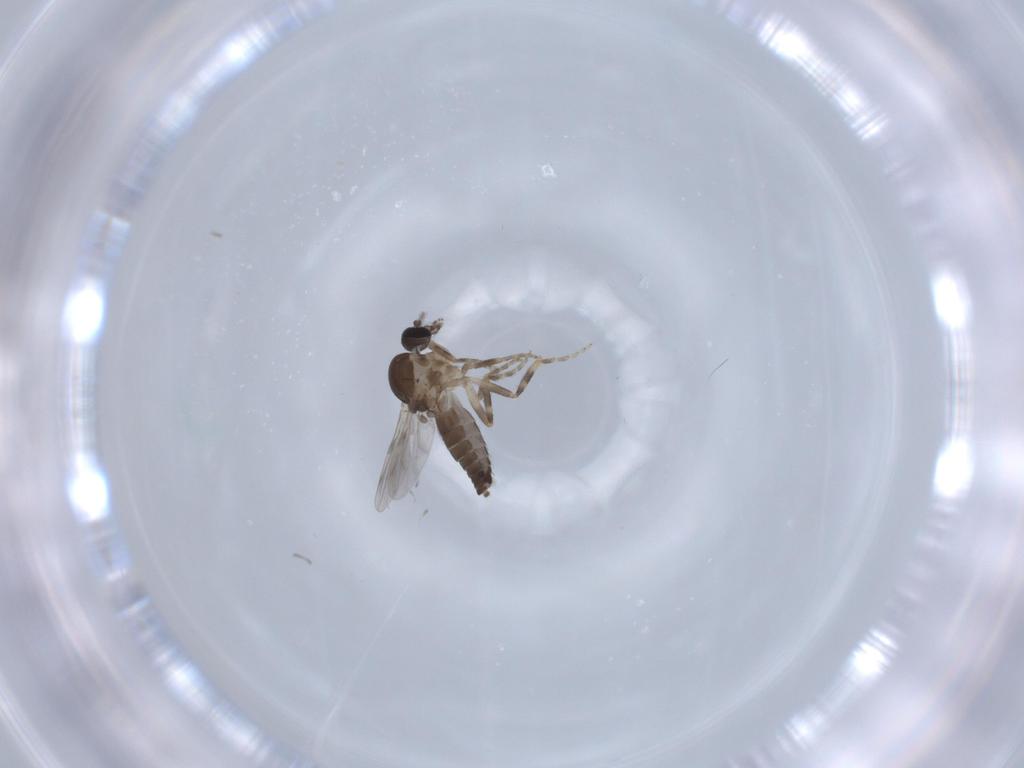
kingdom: Animalia
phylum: Arthropoda
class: Insecta
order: Diptera
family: Ceratopogonidae
